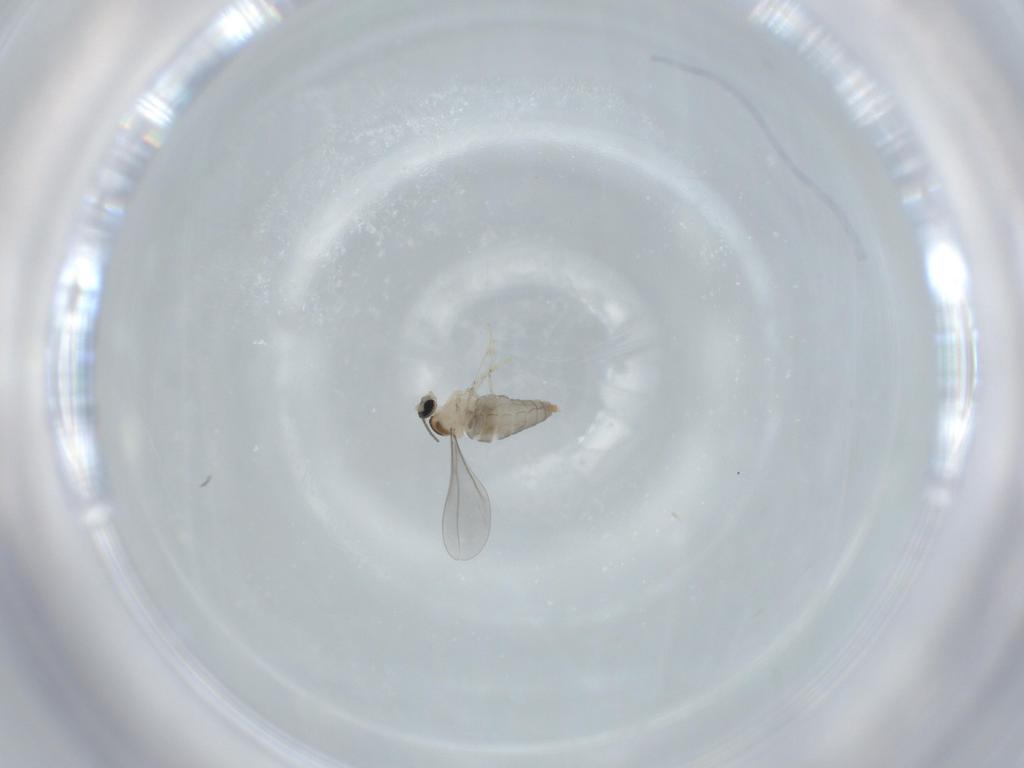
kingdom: Animalia
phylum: Arthropoda
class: Insecta
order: Diptera
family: Cecidomyiidae
